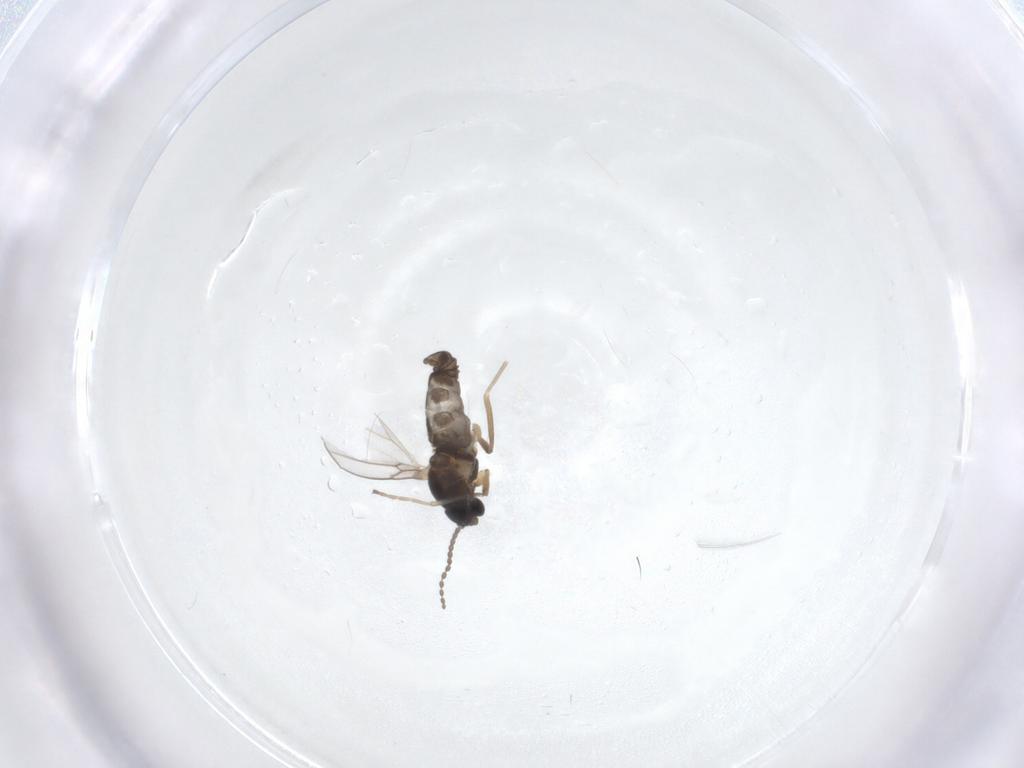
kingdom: Animalia
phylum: Arthropoda
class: Insecta
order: Diptera
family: Cecidomyiidae
